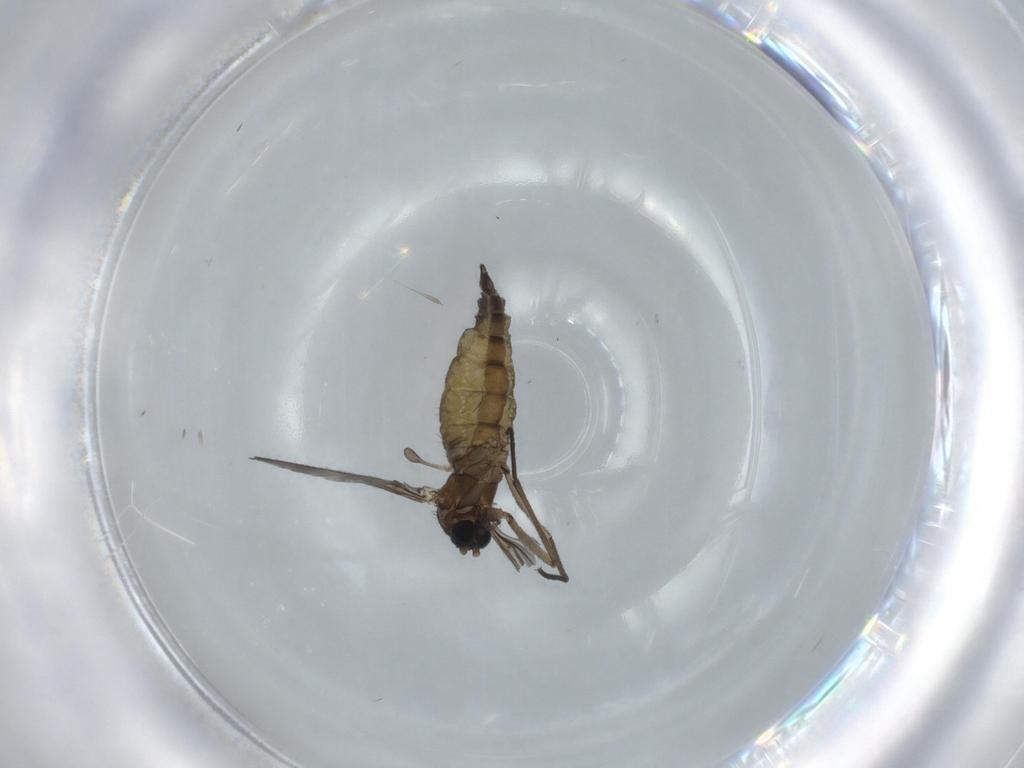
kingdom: Animalia
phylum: Arthropoda
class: Insecta
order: Diptera
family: Sciaridae
